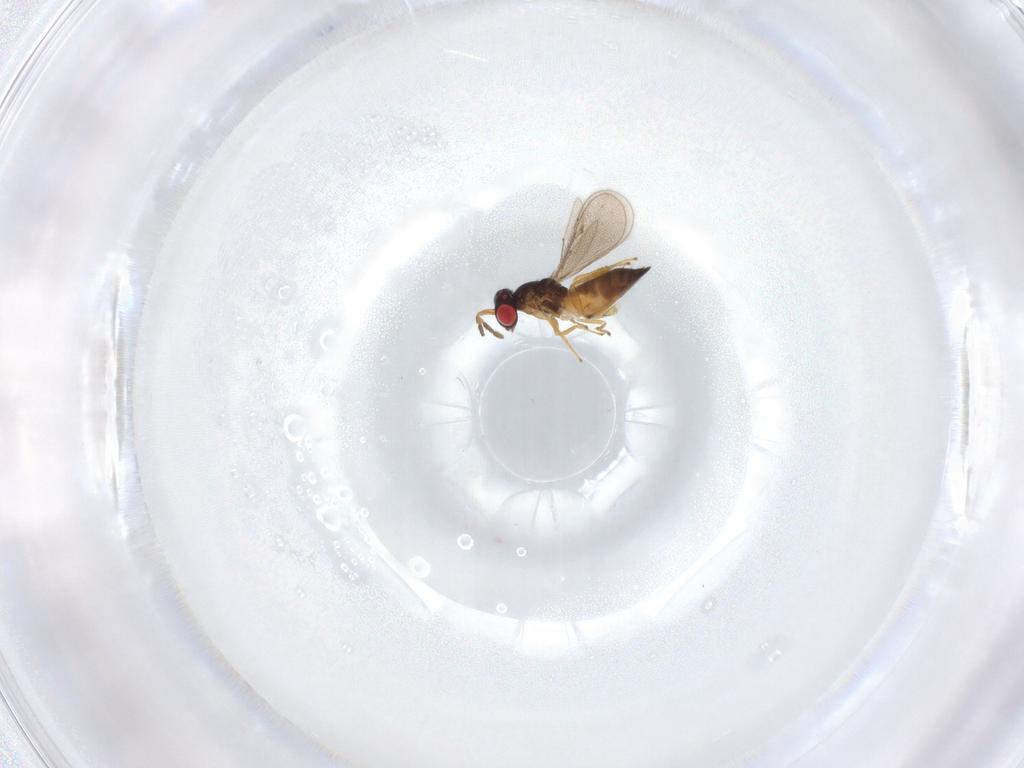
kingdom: Animalia
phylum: Arthropoda
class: Insecta
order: Hymenoptera
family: Eulophidae
